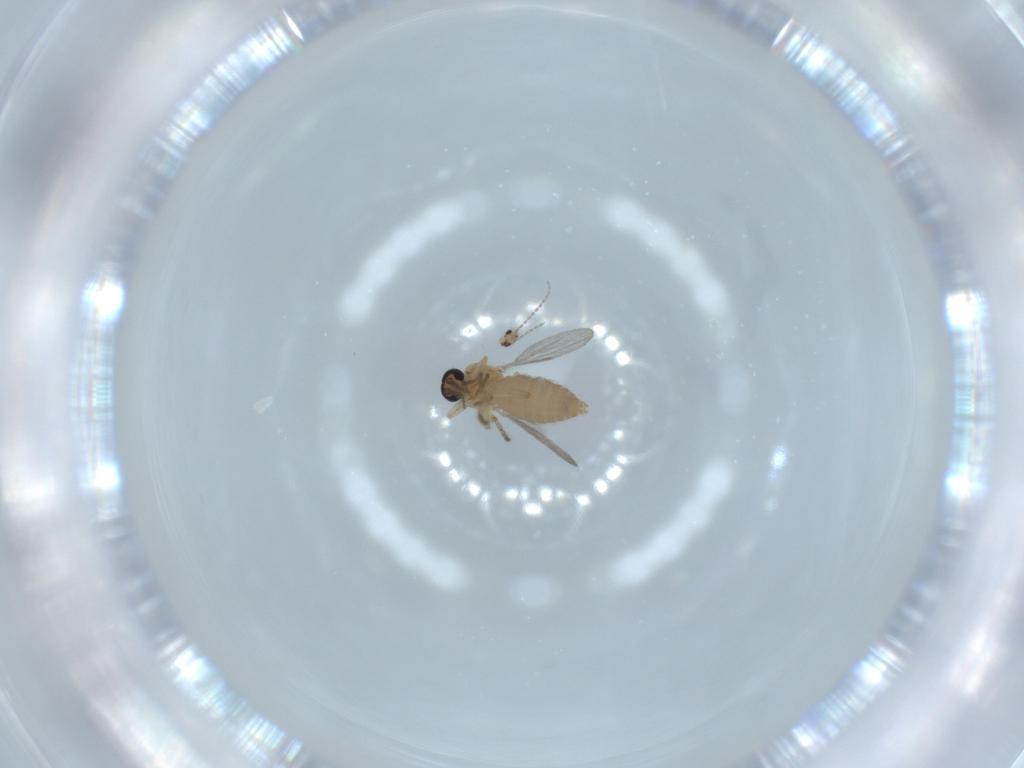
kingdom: Animalia
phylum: Arthropoda
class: Insecta
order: Diptera
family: Ceratopogonidae
